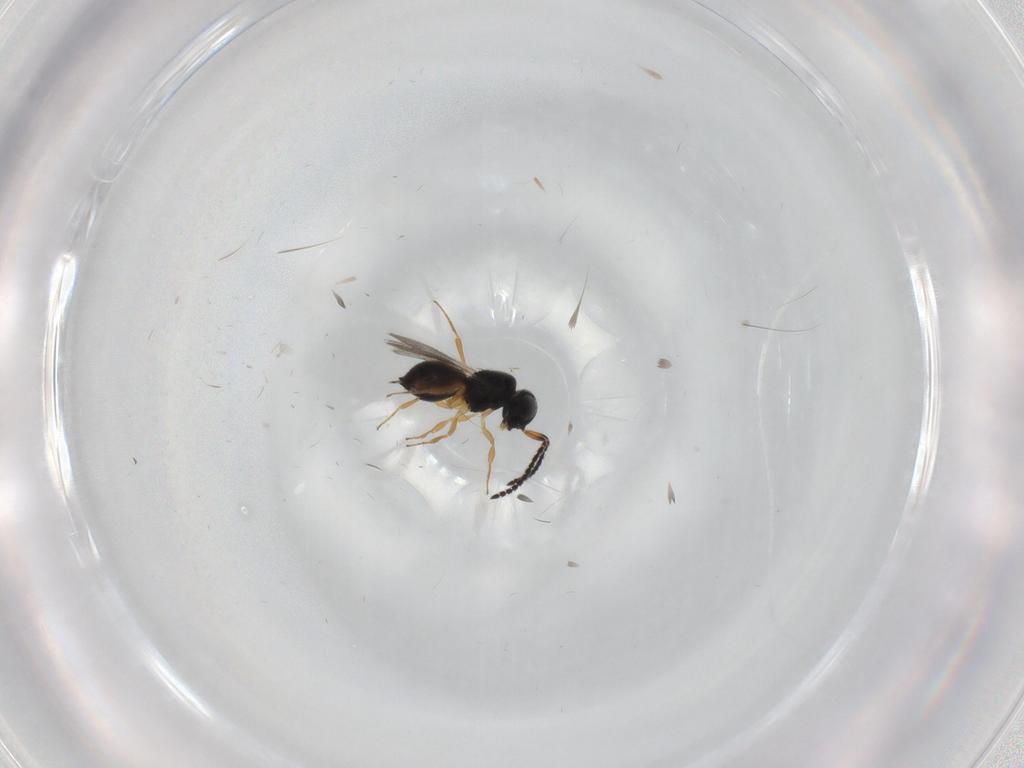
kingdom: Animalia
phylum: Arthropoda
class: Insecta
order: Hymenoptera
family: Scelionidae
